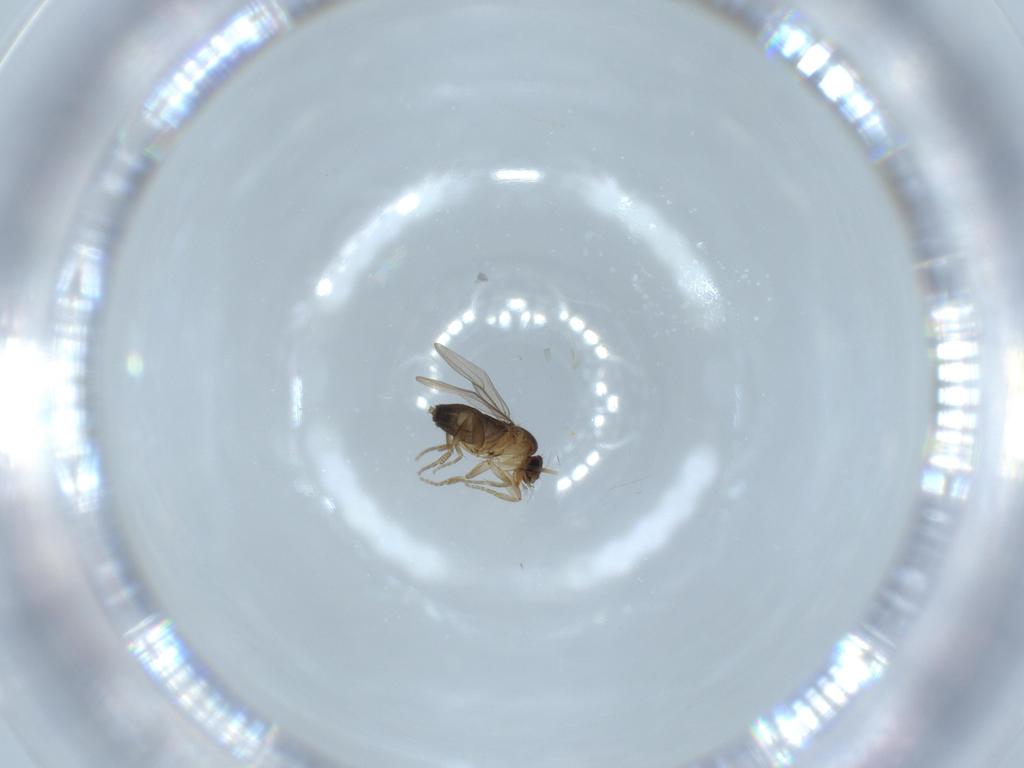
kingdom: Animalia
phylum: Arthropoda
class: Insecta
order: Diptera
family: Phoridae
